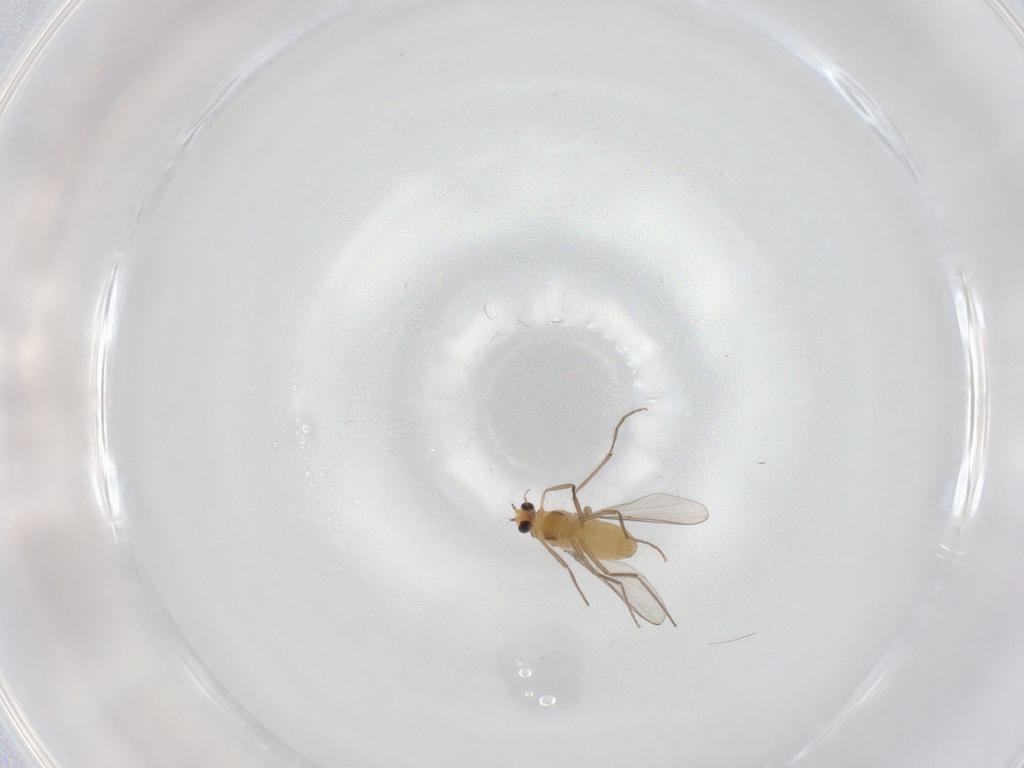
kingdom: Animalia
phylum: Arthropoda
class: Insecta
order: Diptera
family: Chironomidae
